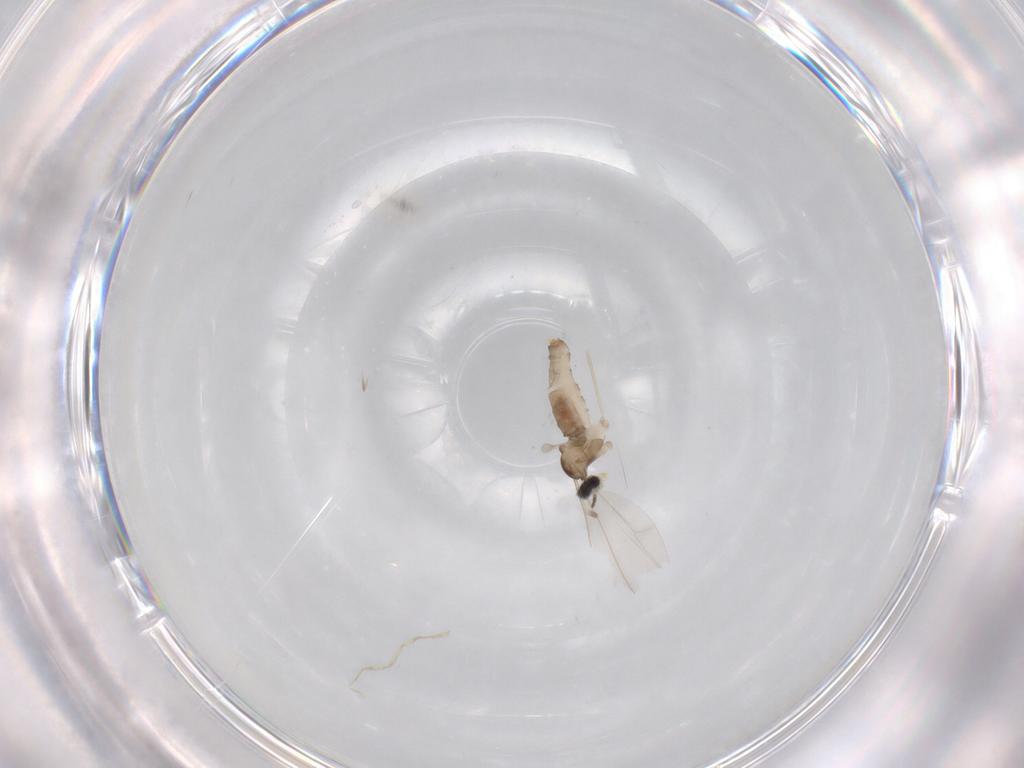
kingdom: Animalia
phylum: Arthropoda
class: Insecta
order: Diptera
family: Cecidomyiidae
